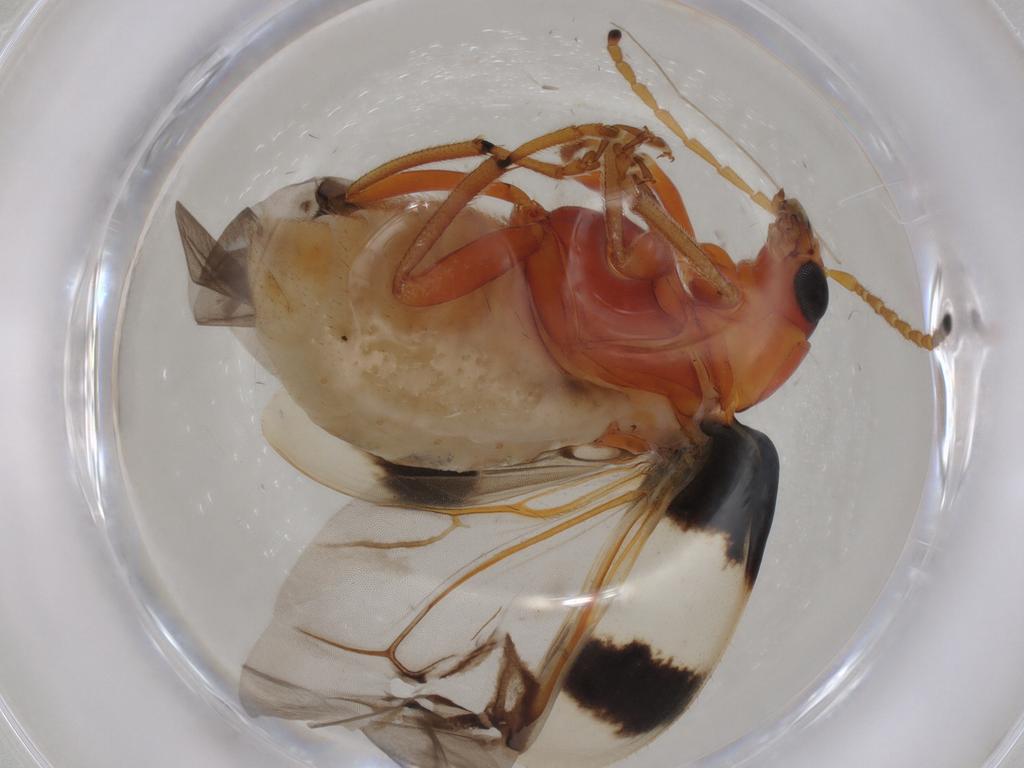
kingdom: Animalia
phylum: Arthropoda
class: Insecta
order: Coleoptera
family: Chrysomelidae
